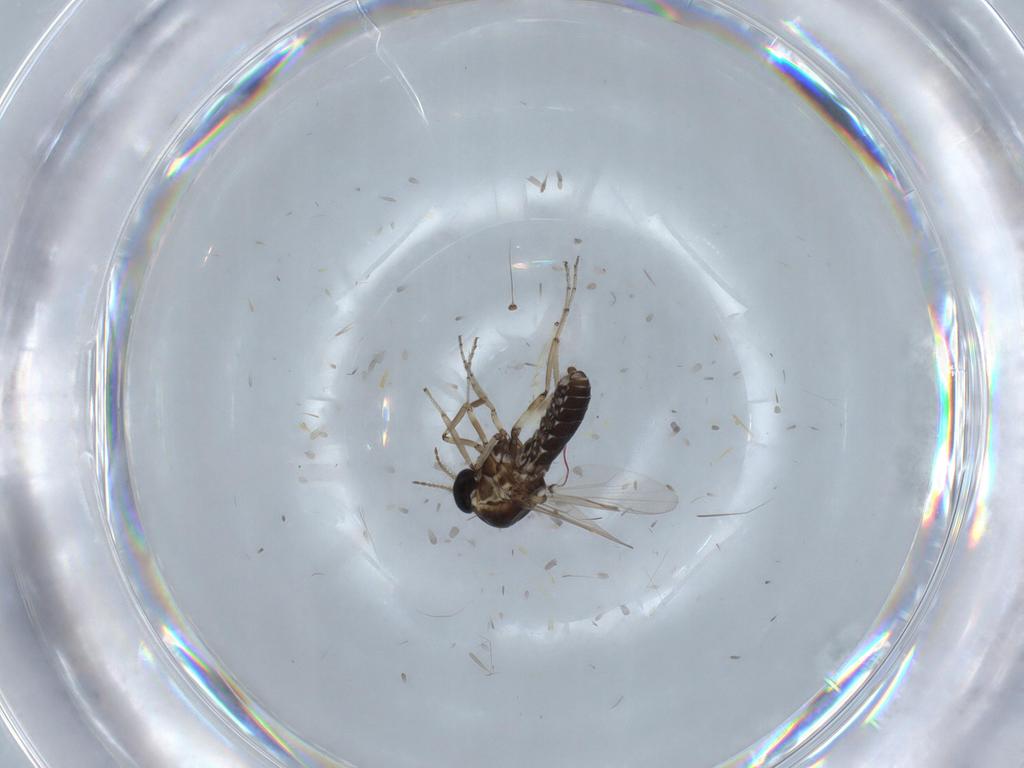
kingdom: Animalia
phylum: Arthropoda
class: Insecta
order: Diptera
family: Ceratopogonidae
